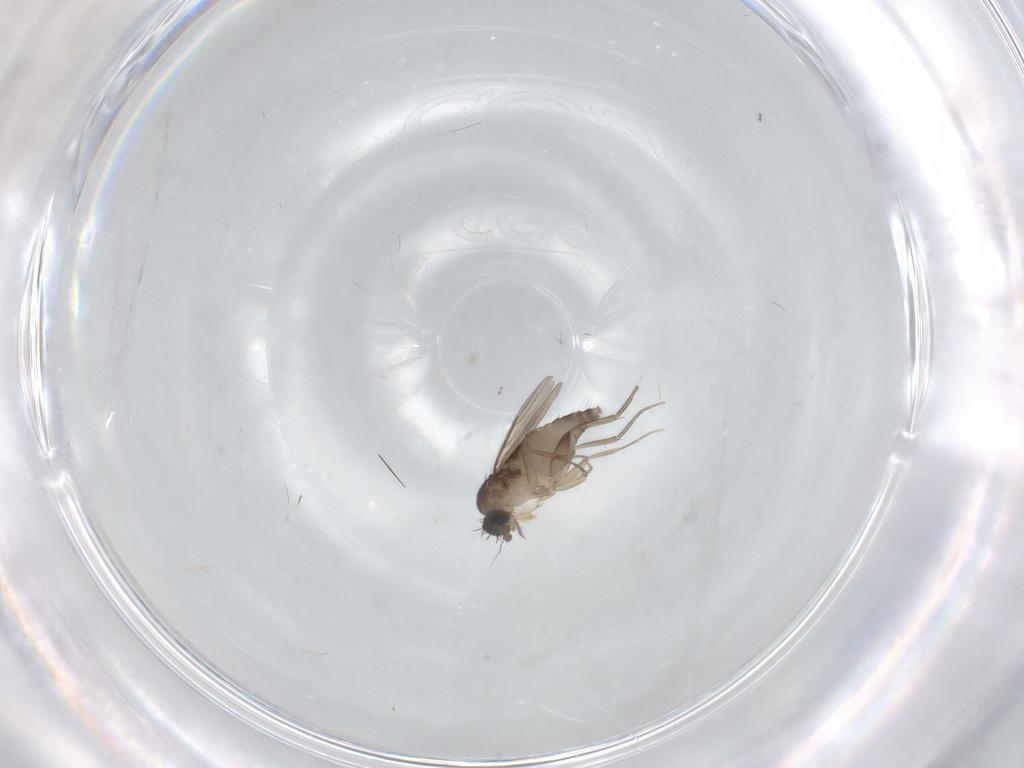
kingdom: Animalia
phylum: Arthropoda
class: Insecta
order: Diptera
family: Phoridae
